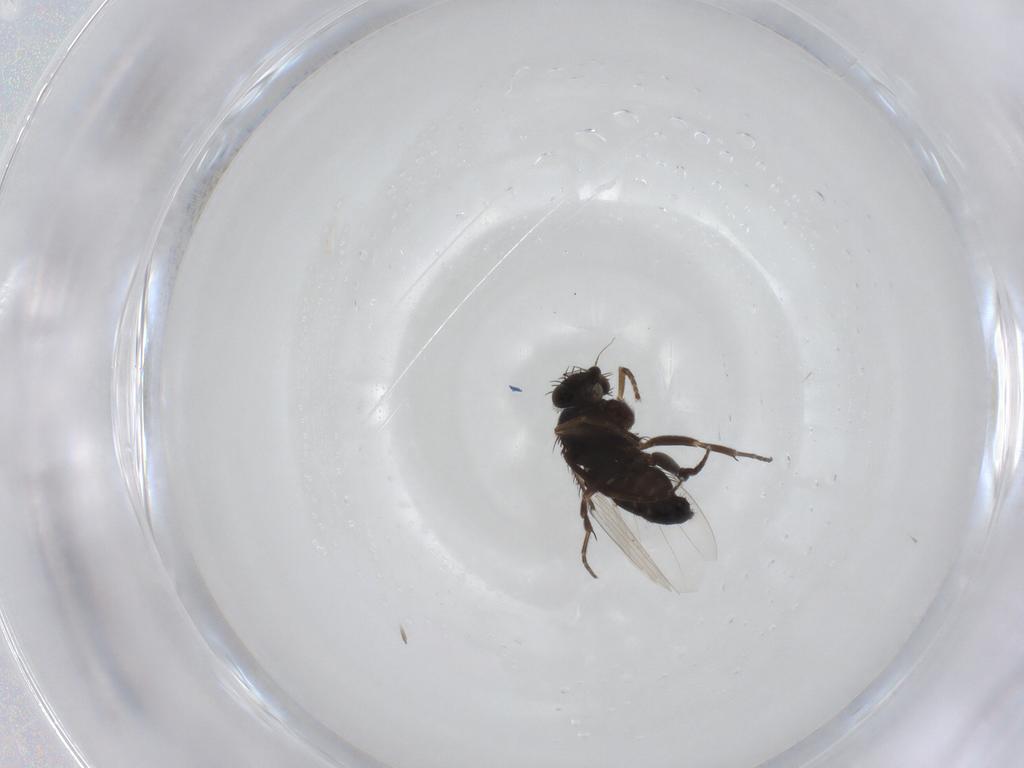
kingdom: Animalia
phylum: Arthropoda
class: Insecta
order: Diptera
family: Phoridae
